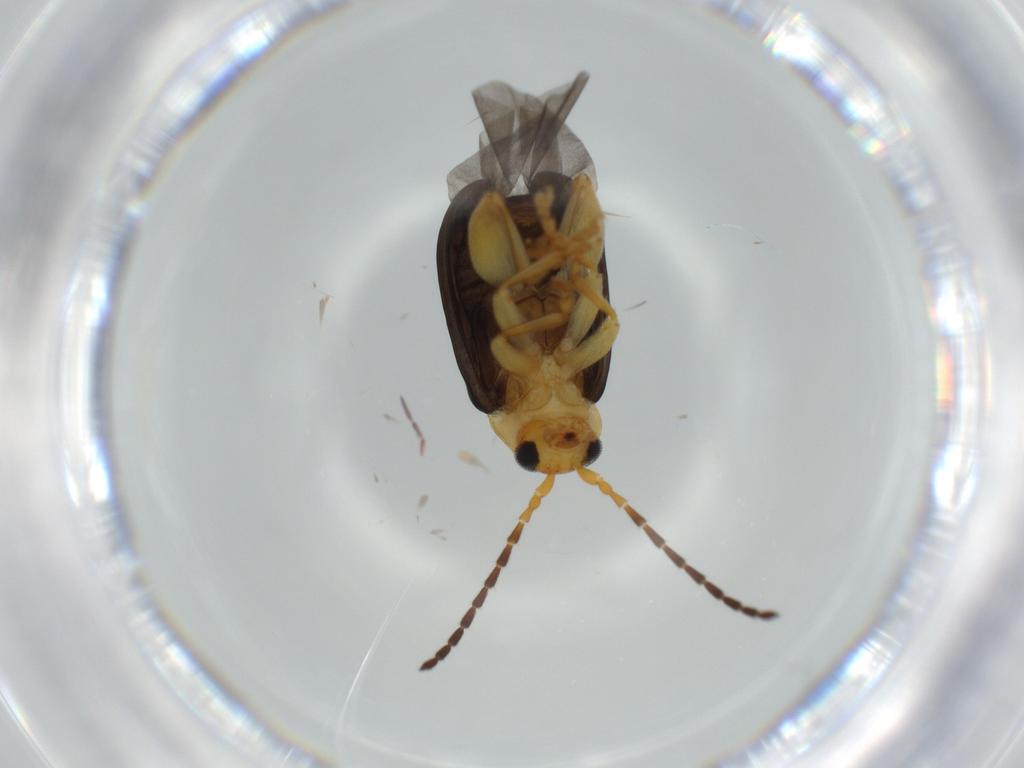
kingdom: Animalia
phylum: Arthropoda
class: Insecta
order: Coleoptera
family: Chrysomelidae
